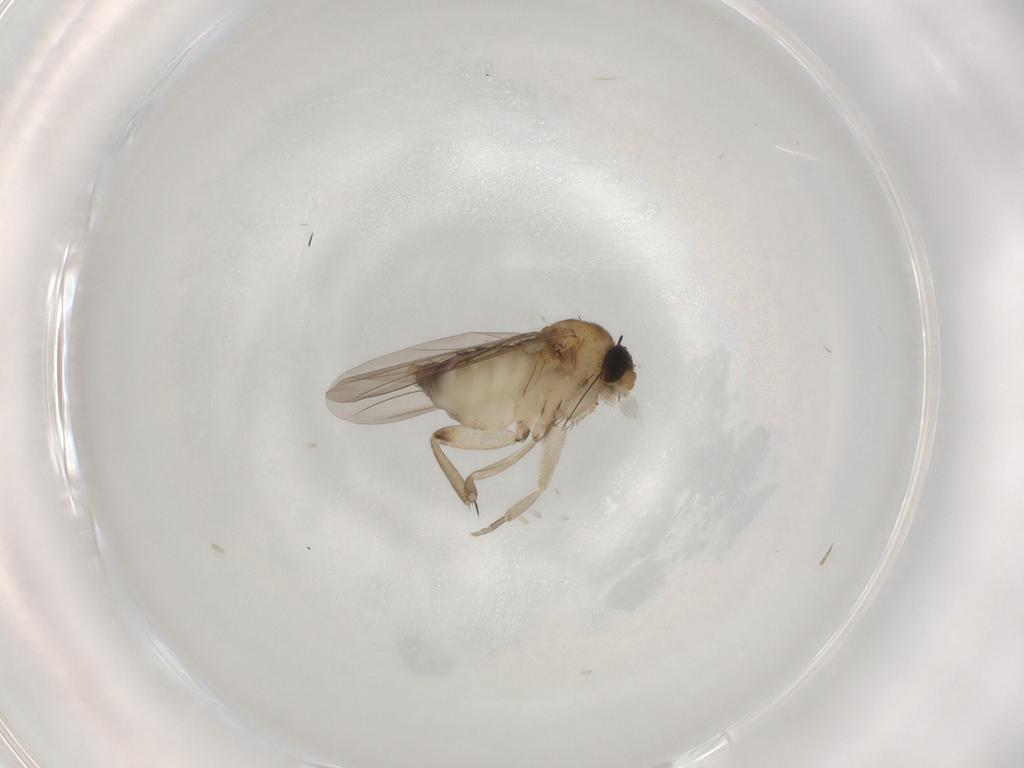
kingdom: Animalia
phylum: Arthropoda
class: Insecta
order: Diptera
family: Phoridae
